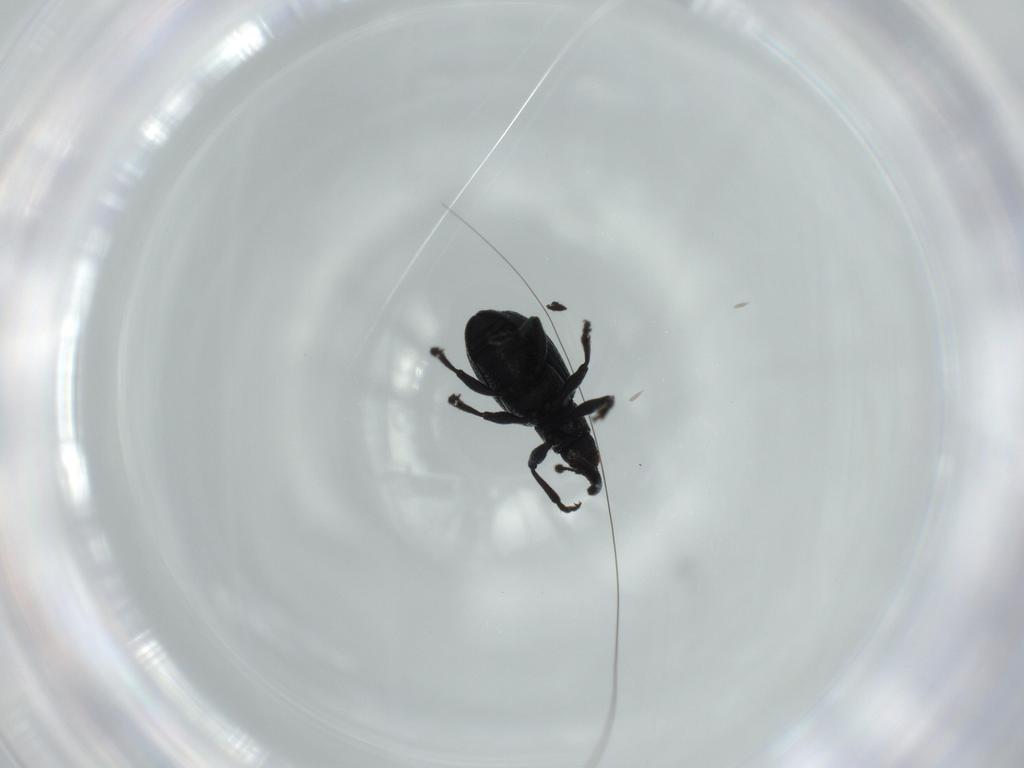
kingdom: Animalia
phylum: Arthropoda
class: Insecta
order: Coleoptera
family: Brentidae
